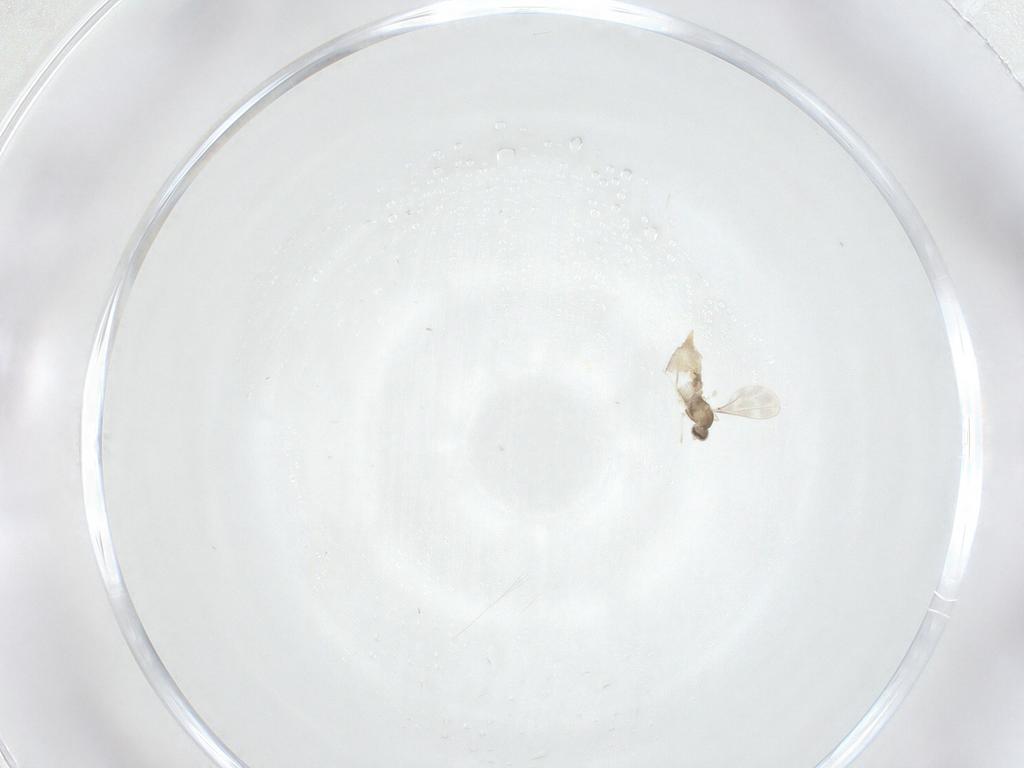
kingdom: Animalia
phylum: Arthropoda
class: Insecta
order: Diptera
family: Cecidomyiidae
